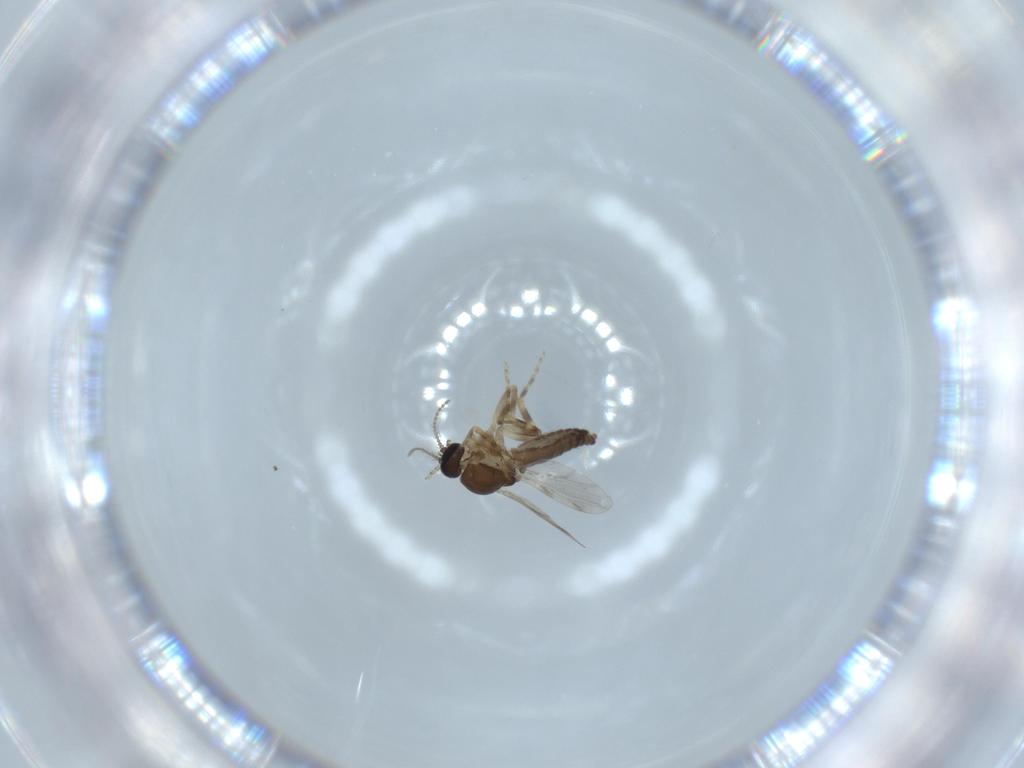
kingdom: Animalia
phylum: Arthropoda
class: Insecta
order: Diptera
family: Ceratopogonidae
